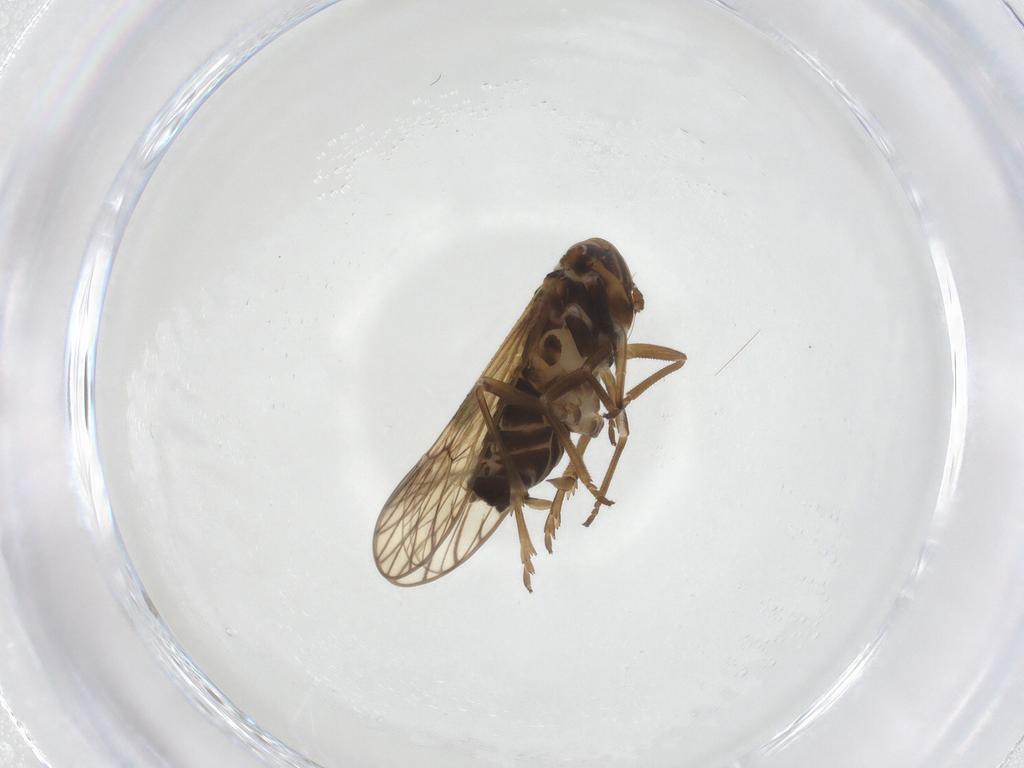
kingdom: Animalia
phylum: Arthropoda
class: Insecta
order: Hemiptera
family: Delphacidae
